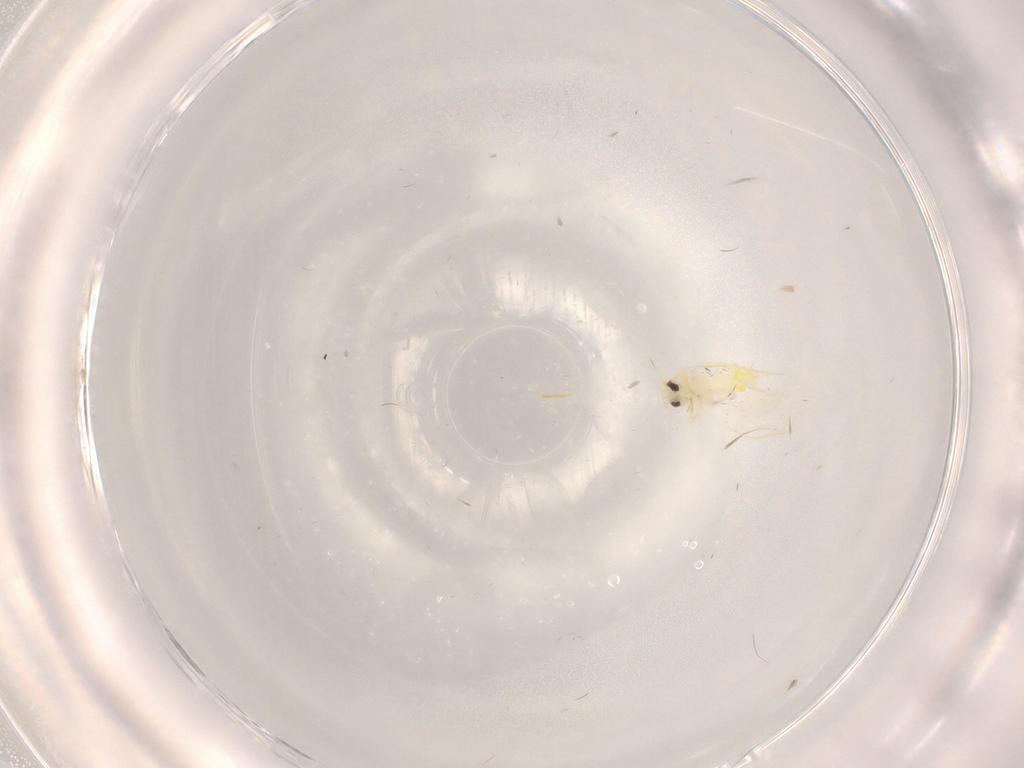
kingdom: Animalia
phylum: Arthropoda
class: Insecta
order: Hemiptera
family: Aleyrodidae
